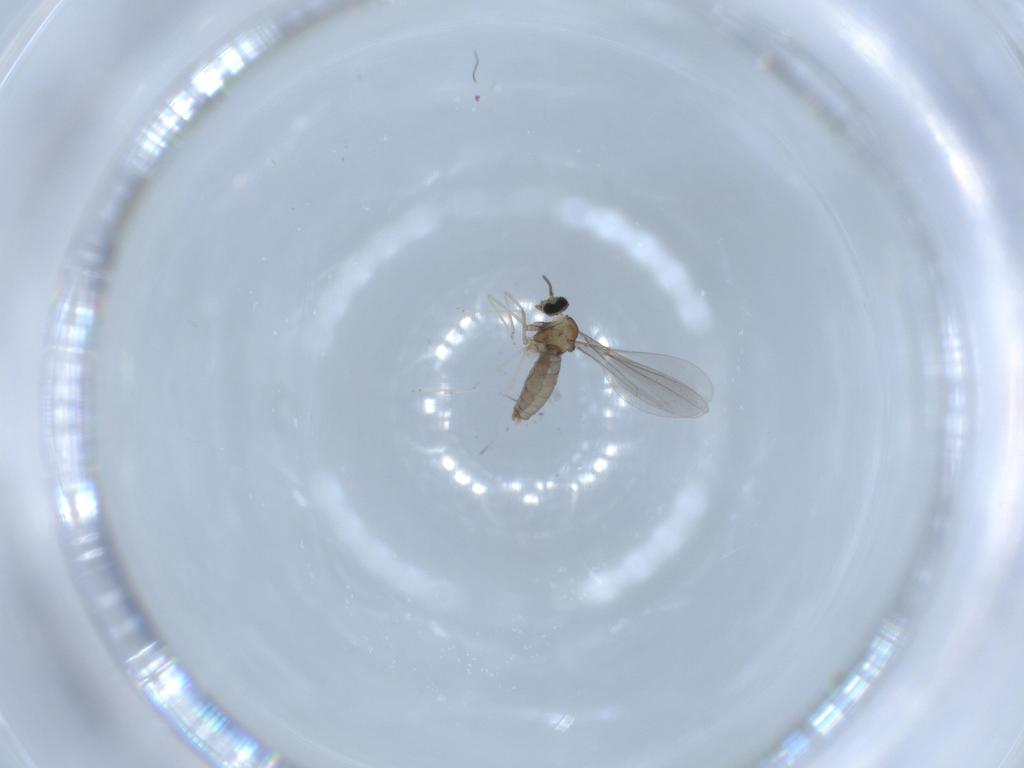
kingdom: Animalia
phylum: Arthropoda
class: Insecta
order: Diptera
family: Cecidomyiidae
